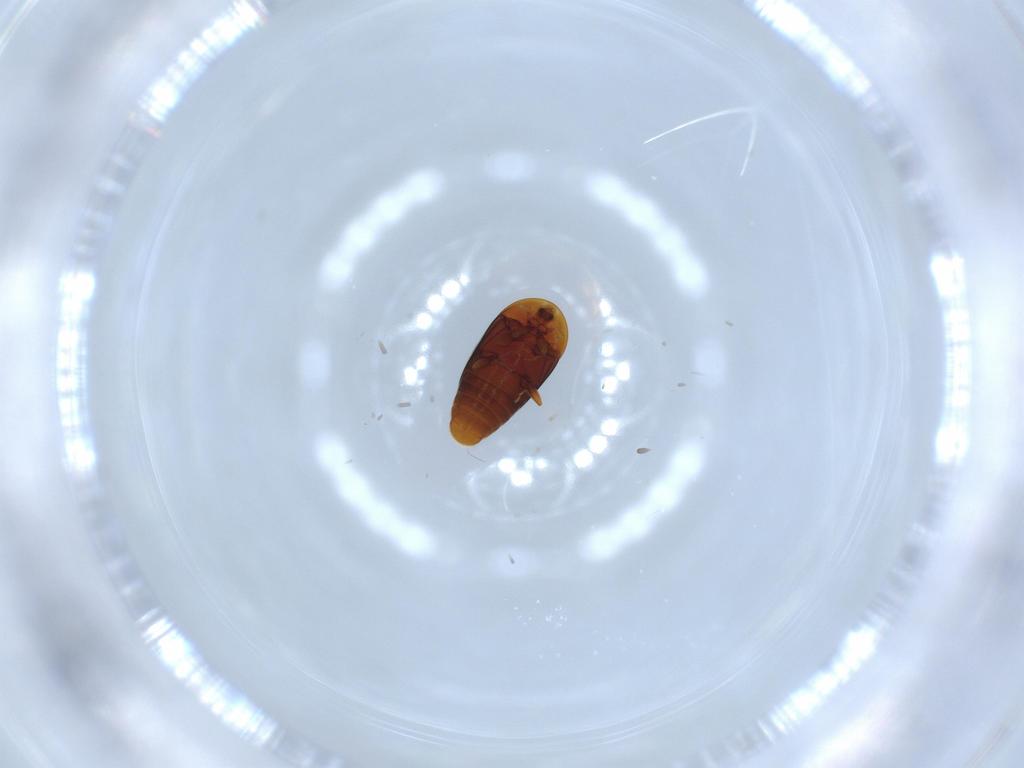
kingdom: Animalia
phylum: Arthropoda
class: Insecta
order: Coleoptera
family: Corylophidae
